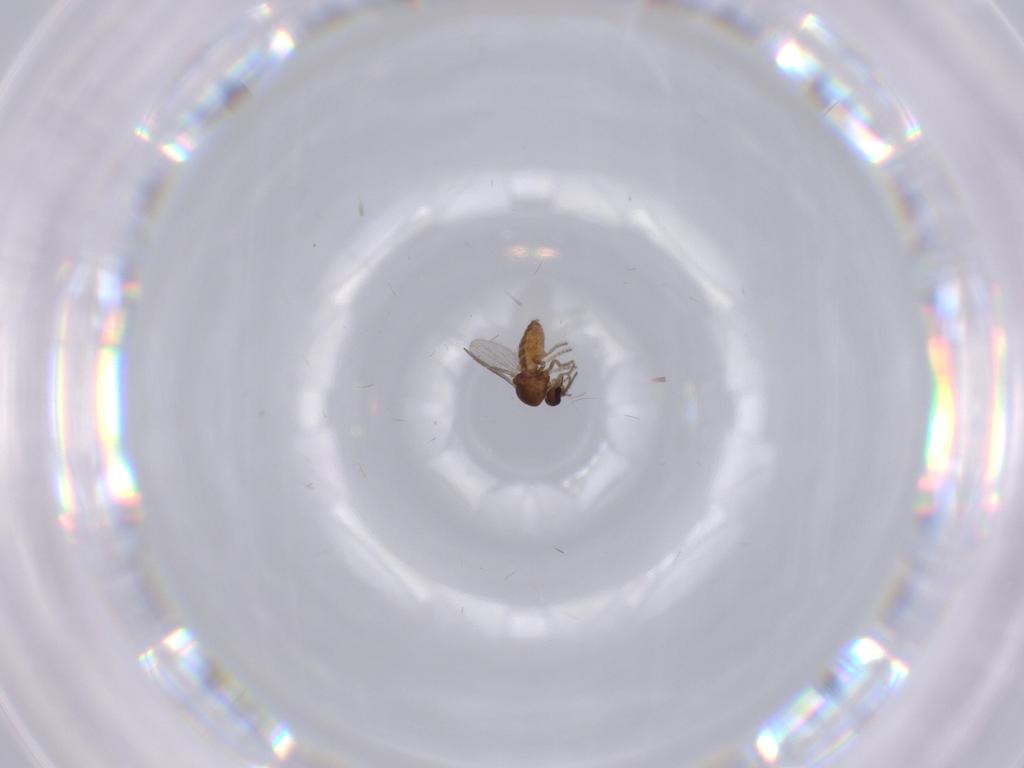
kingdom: Animalia
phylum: Arthropoda
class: Insecta
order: Diptera
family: Ceratopogonidae
